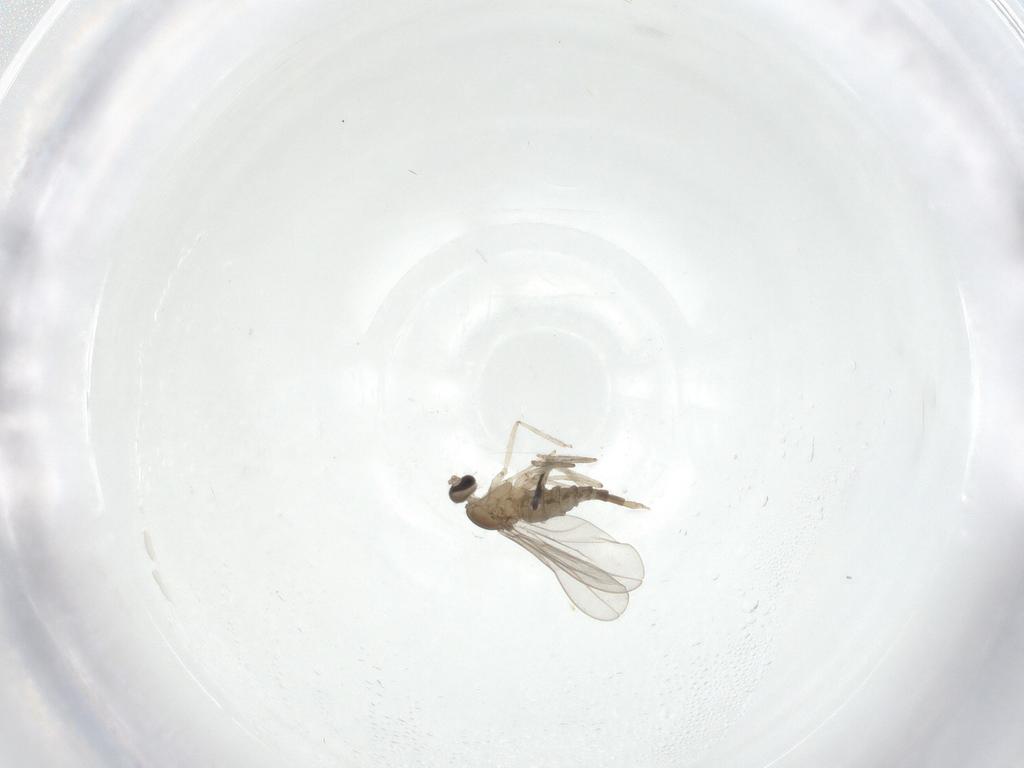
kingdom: Animalia
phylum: Arthropoda
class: Insecta
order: Diptera
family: Cecidomyiidae
